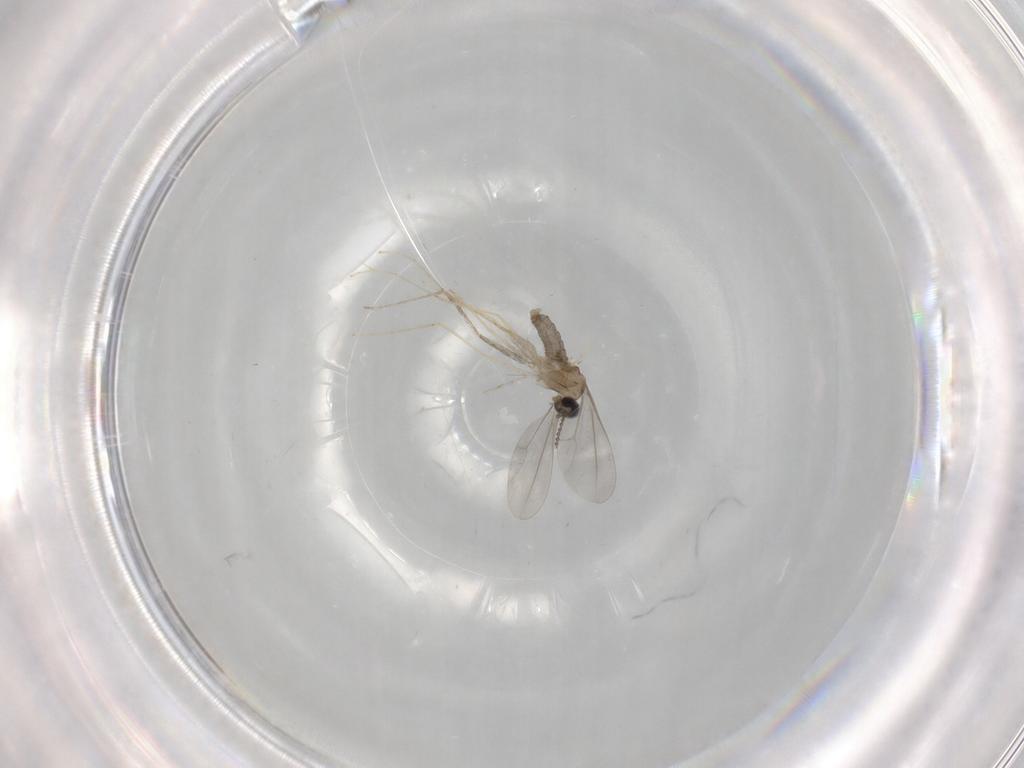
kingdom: Animalia
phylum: Arthropoda
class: Insecta
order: Diptera
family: Cecidomyiidae
